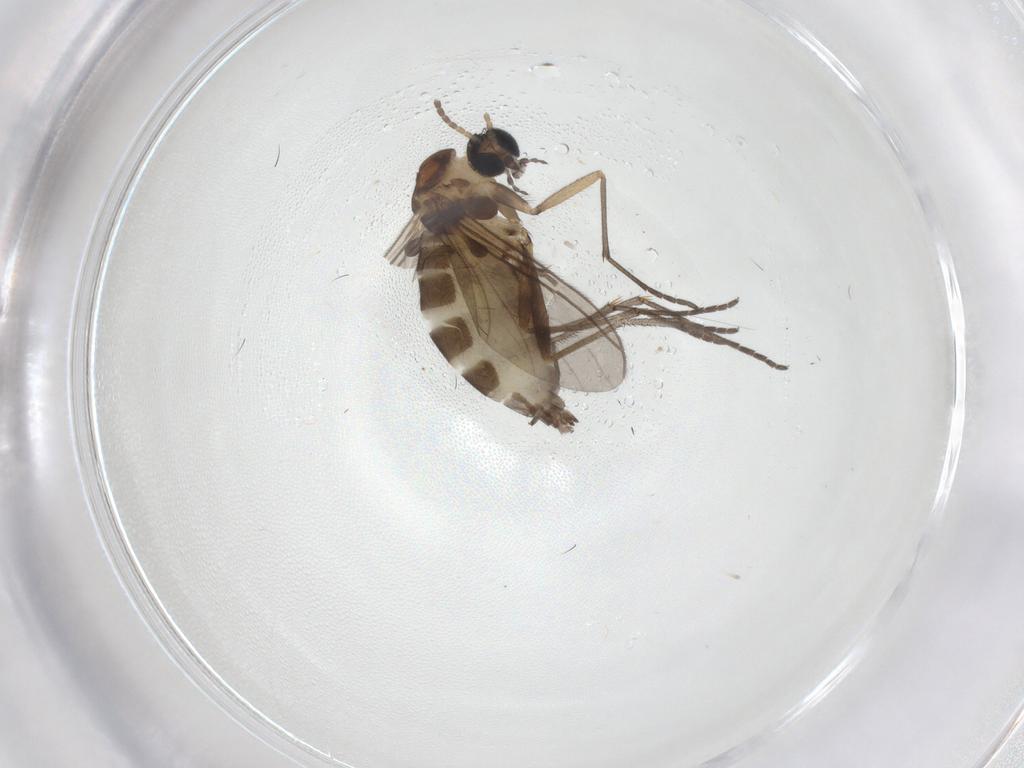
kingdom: Animalia
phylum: Arthropoda
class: Insecta
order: Diptera
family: Sciaridae
